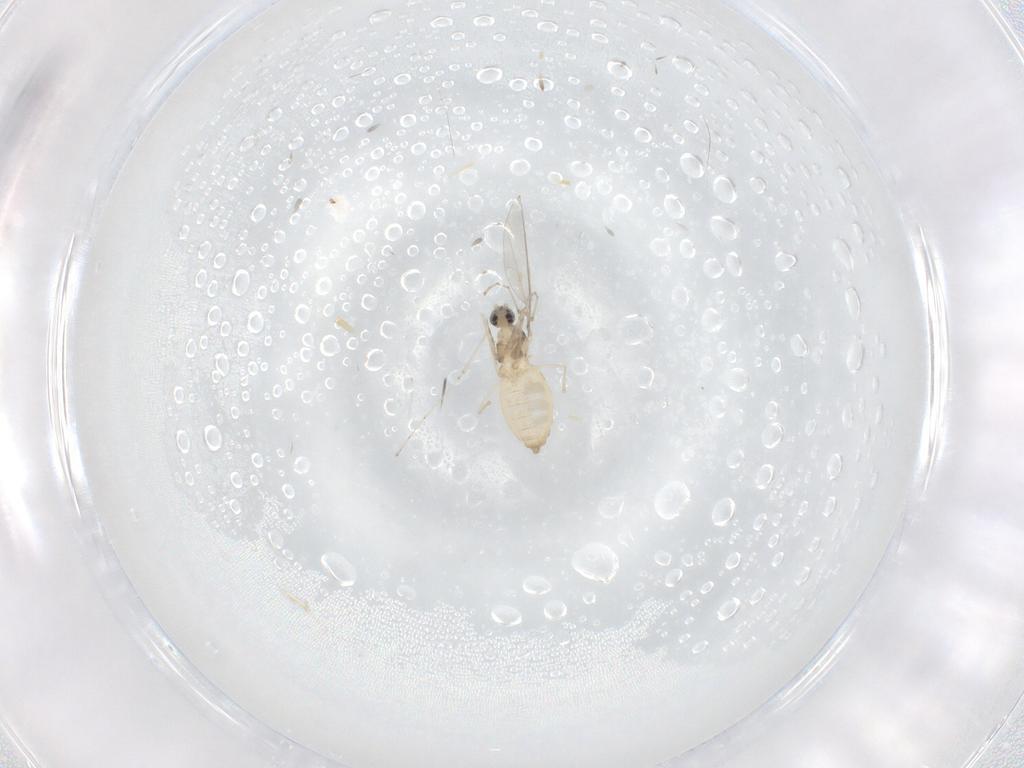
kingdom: Animalia
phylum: Arthropoda
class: Insecta
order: Diptera
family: Cecidomyiidae
